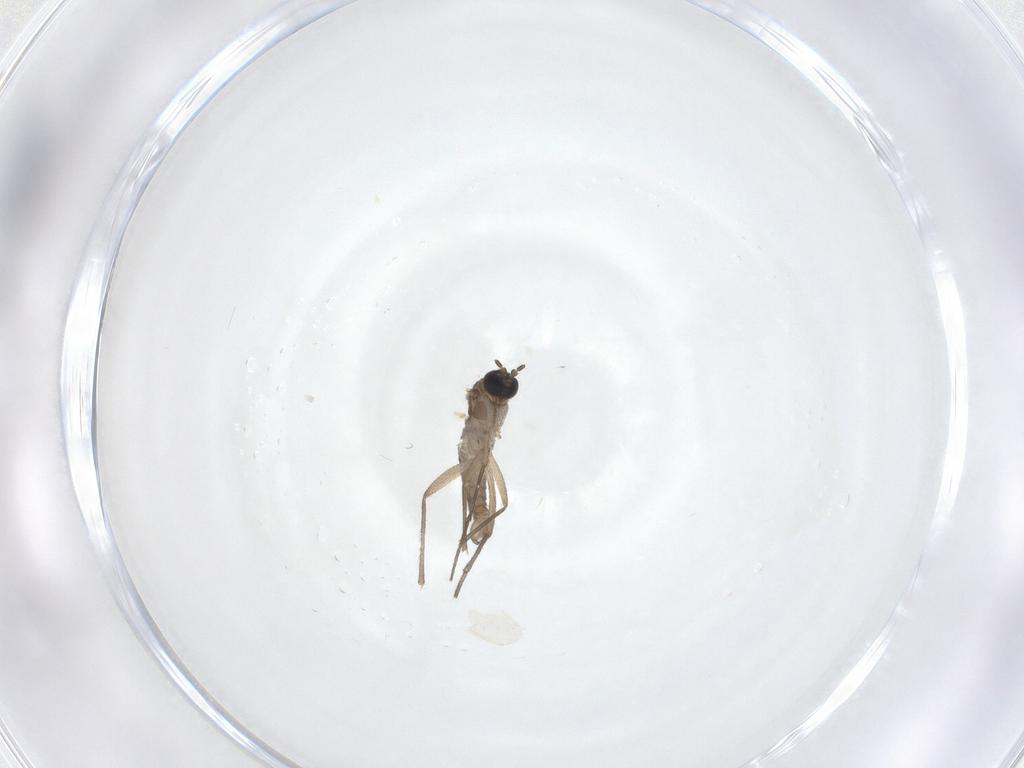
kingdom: Animalia
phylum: Arthropoda
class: Insecta
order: Diptera
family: Sciaridae
